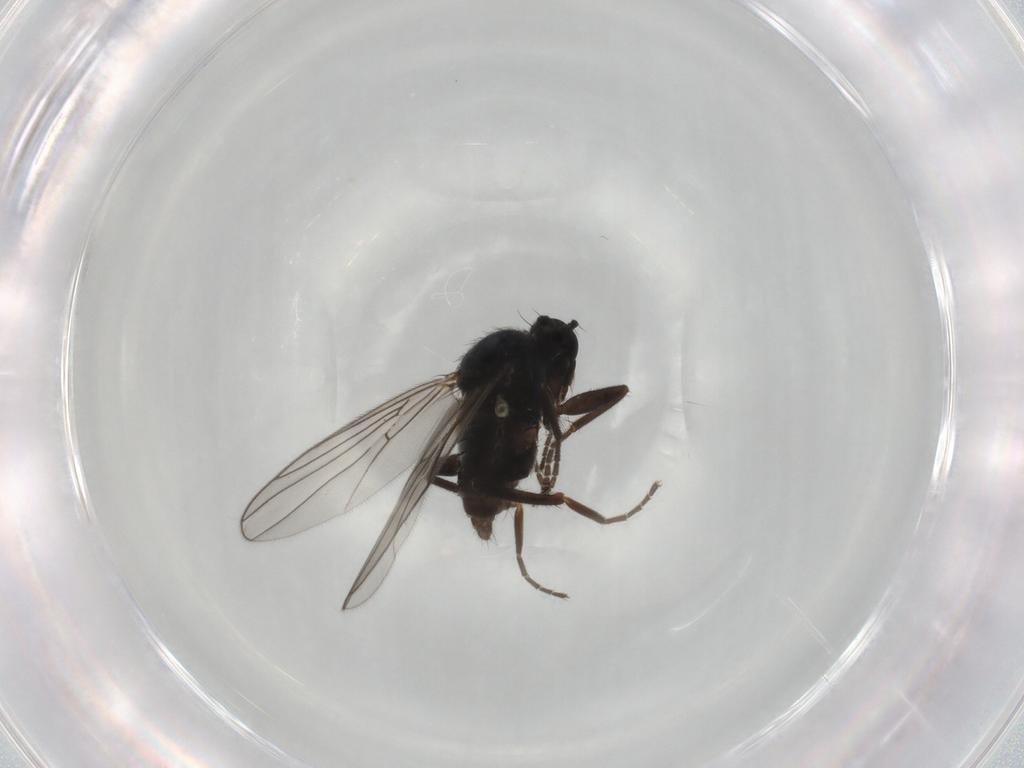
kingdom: Animalia
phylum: Arthropoda
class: Insecta
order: Diptera
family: Hybotidae
